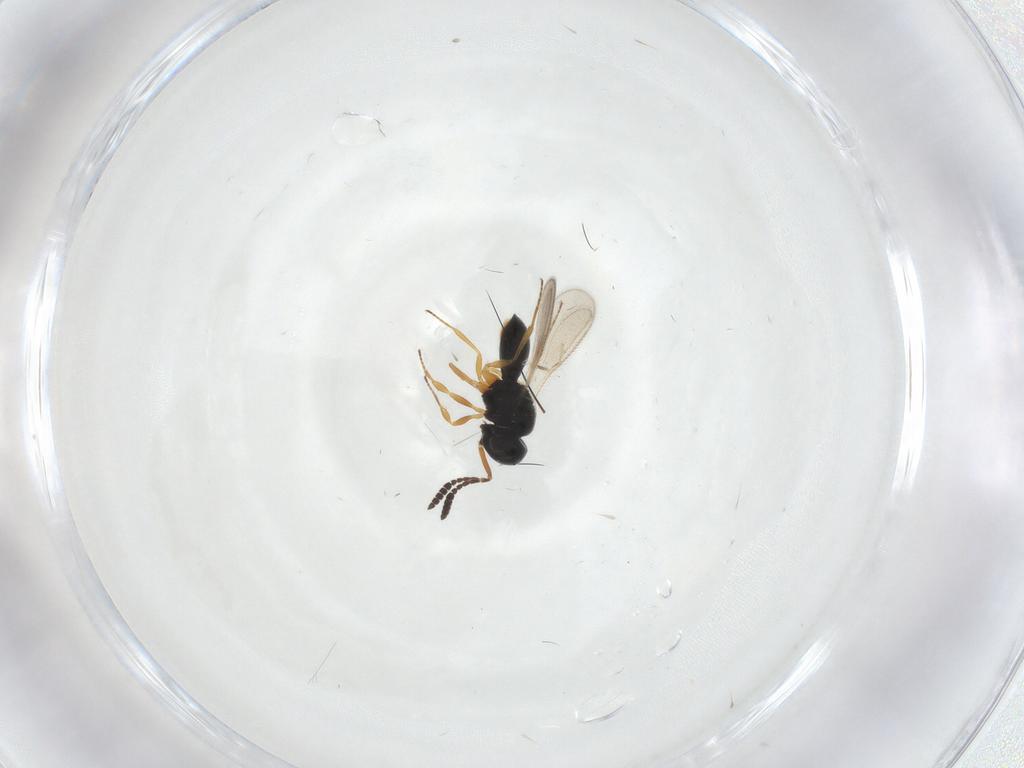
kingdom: Animalia
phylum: Arthropoda
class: Insecta
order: Hymenoptera
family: Scelionidae
